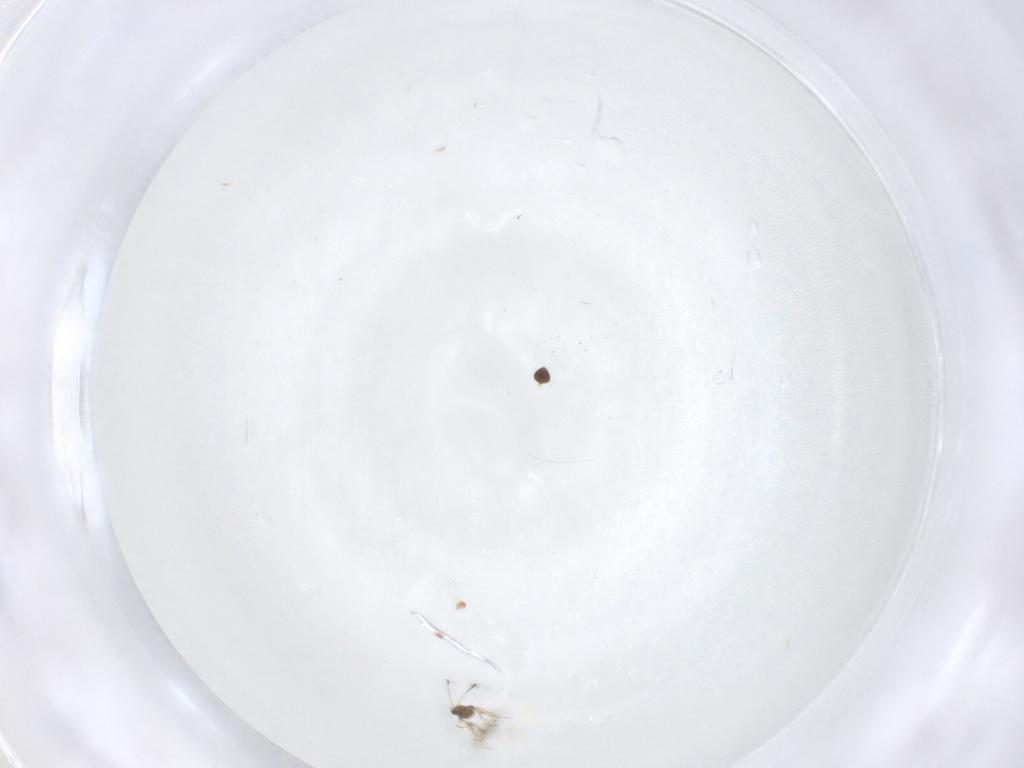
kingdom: Animalia
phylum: Arthropoda
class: Insecta
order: Hymenoptera
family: Mymaridae
